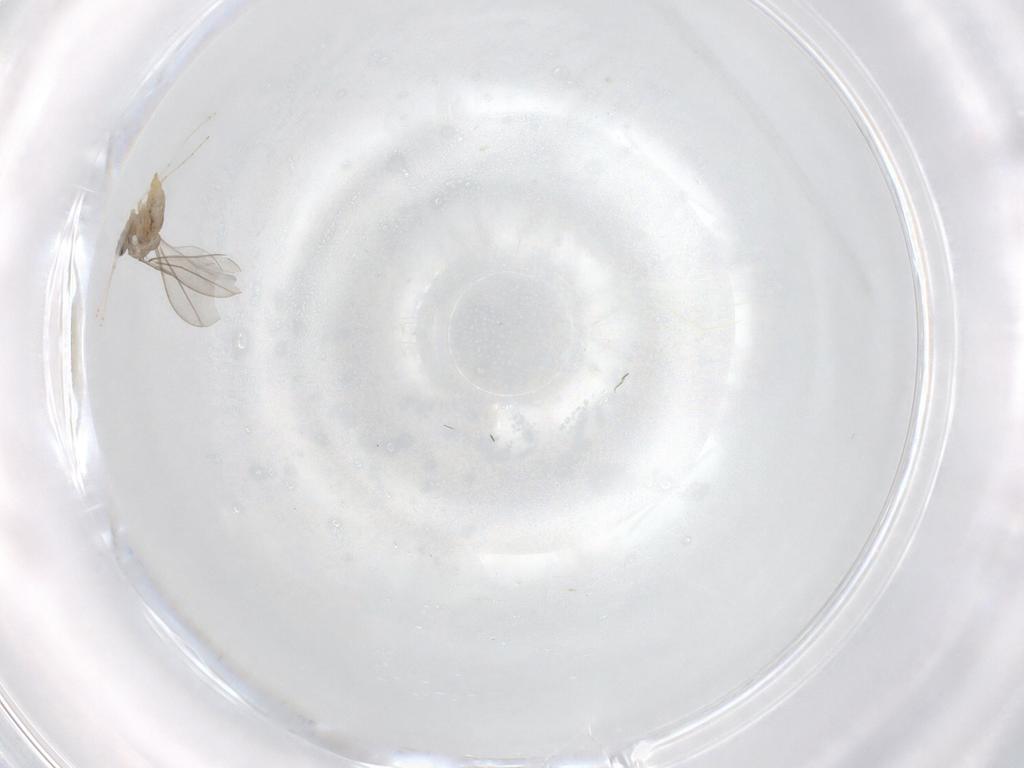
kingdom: Animalia
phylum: Arthropoda
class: Insecta
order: Diptera
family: Cecidomyiidae
